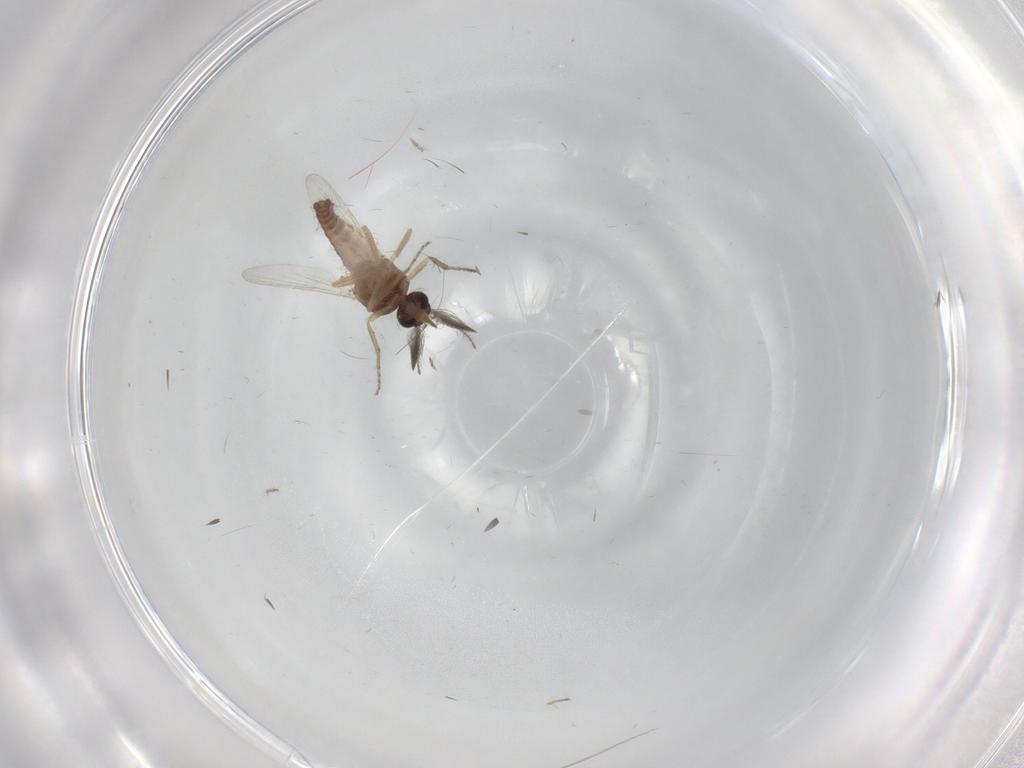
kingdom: Animalia
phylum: Arthropoda
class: Insecta
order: Diptera
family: Ceratopogonidae
